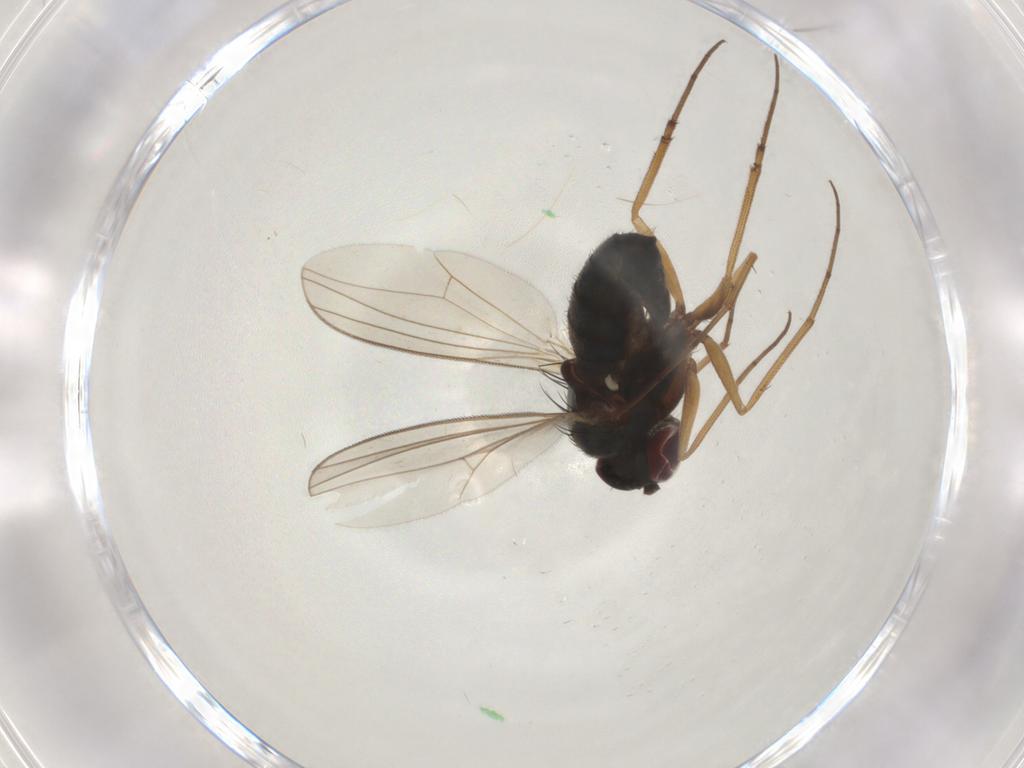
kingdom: Animalia
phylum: Arthropoda
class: Insecta
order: Diptera
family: Dolichopodidae
